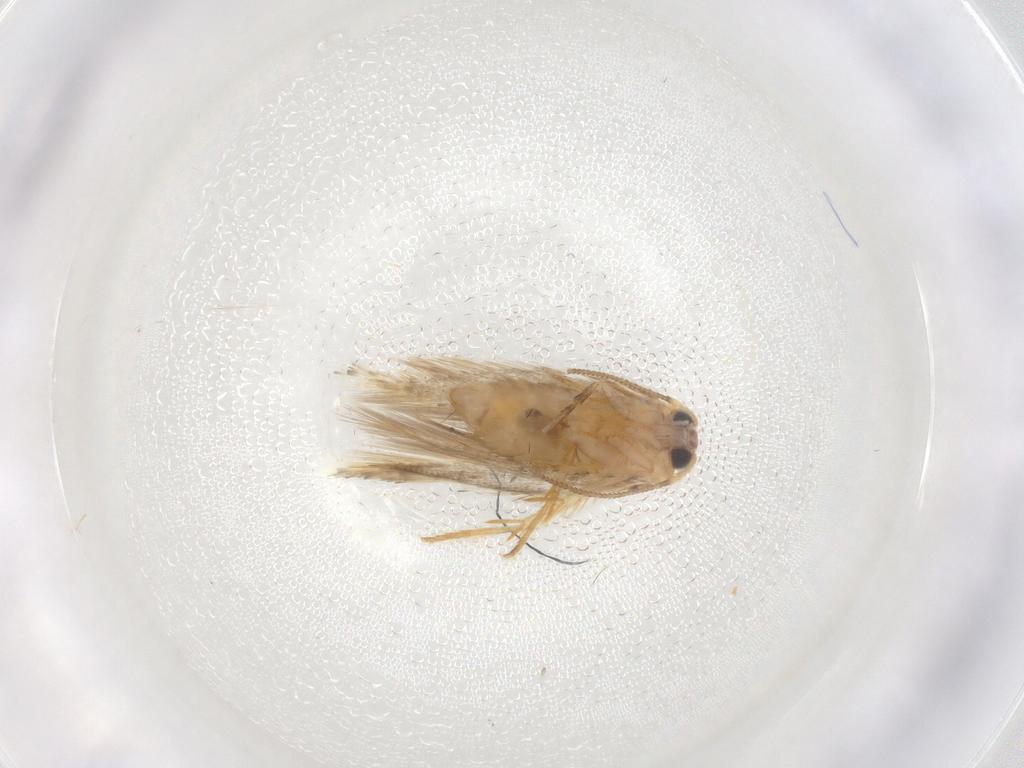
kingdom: Animalia
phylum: Arthropoda
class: Insecta
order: Lepidoptera
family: Nepticulidae
